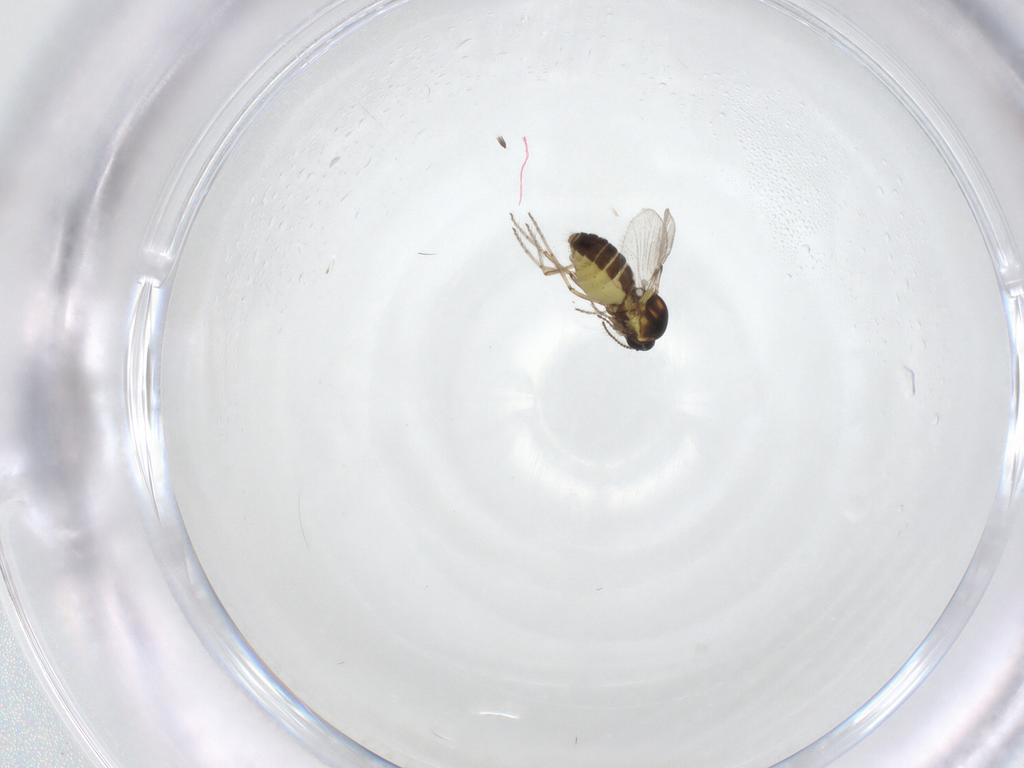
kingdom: Animalia
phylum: Arthropoda
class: Insecta
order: Diptera
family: Ceratopogonidae
